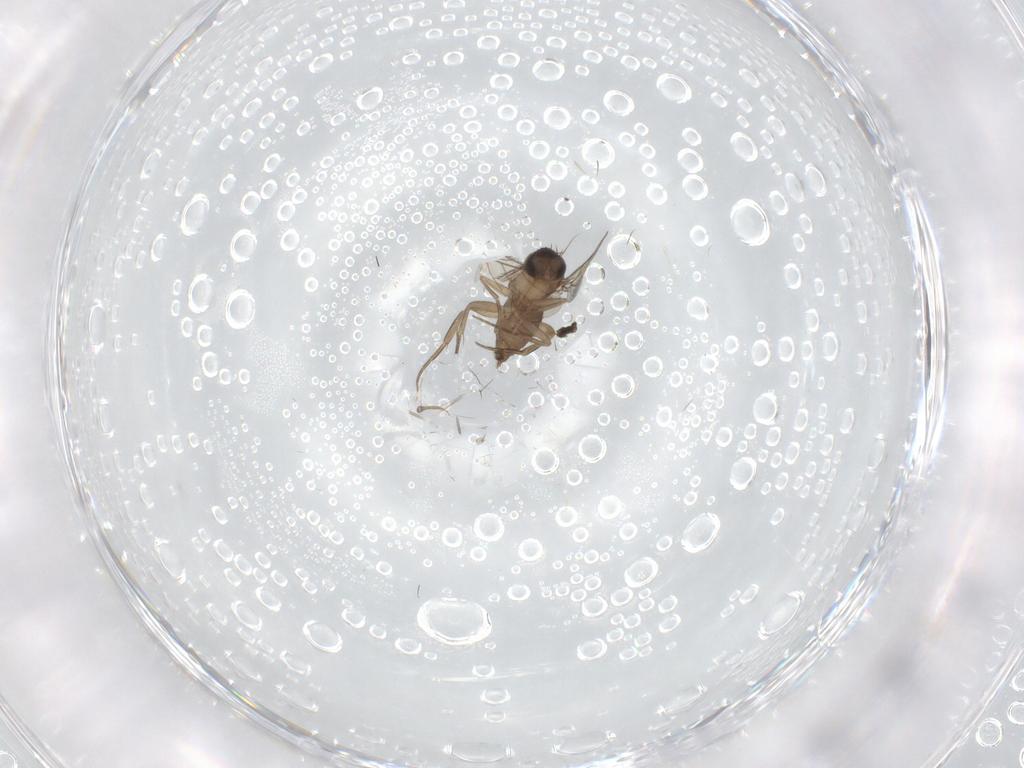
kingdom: Animalia
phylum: Arthropoda
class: Insecta
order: Diptera
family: Phoridae
